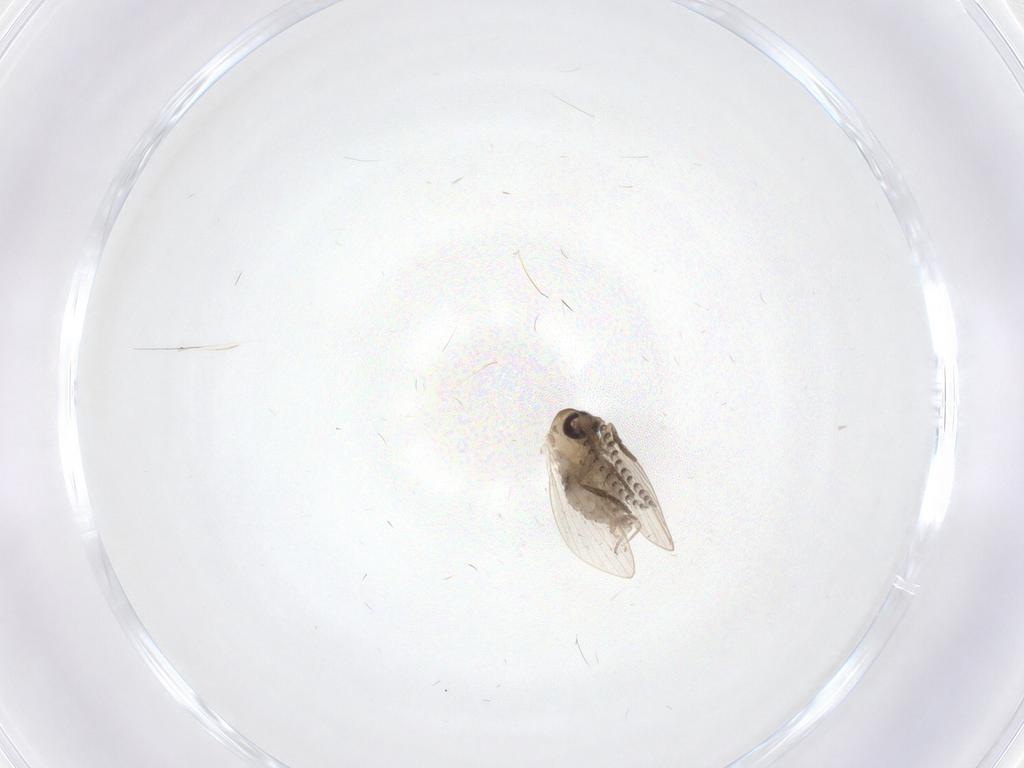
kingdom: Animalia
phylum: Arthropoda
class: Insecta
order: Diptera
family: Psychodidae
